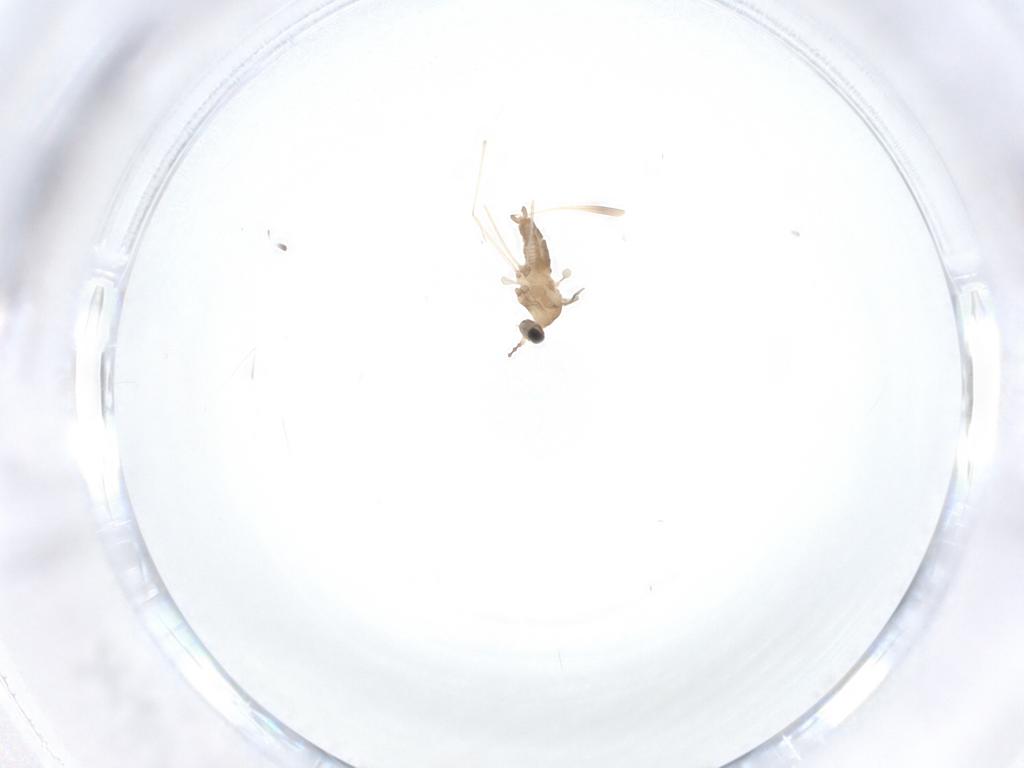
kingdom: Animalia
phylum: Arthropoda
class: Insecta
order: Diptera
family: Cecidomyiidae
